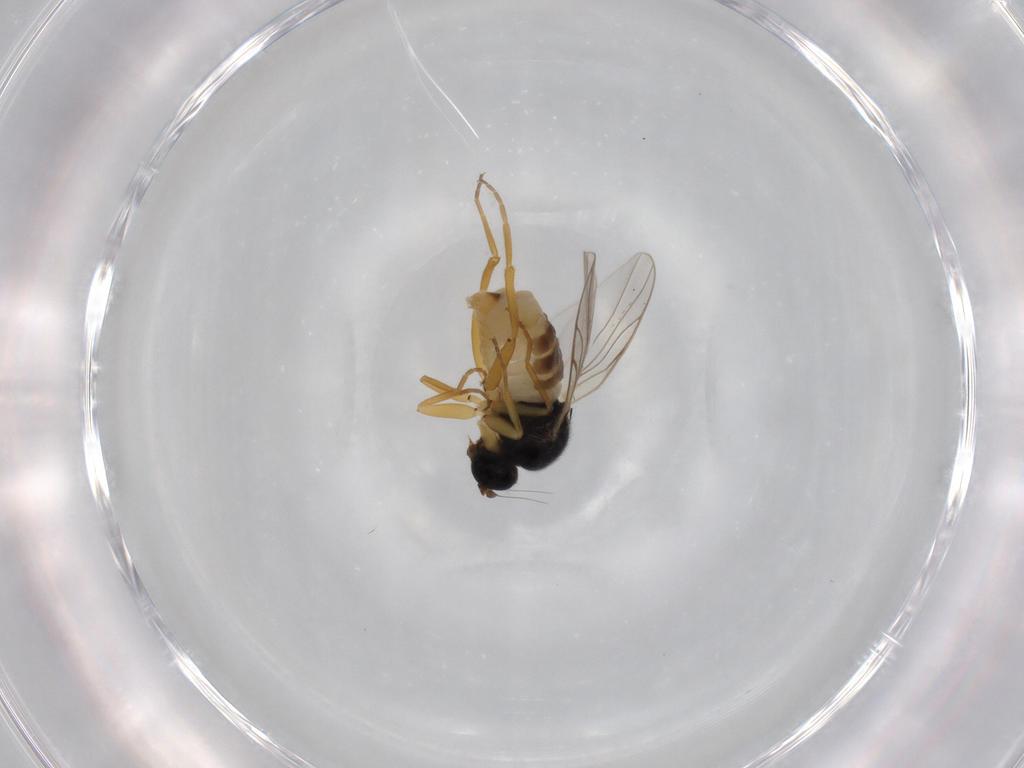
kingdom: Animalia
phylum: Arthropoda
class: Insecta
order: Diptera
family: Hybotidae
